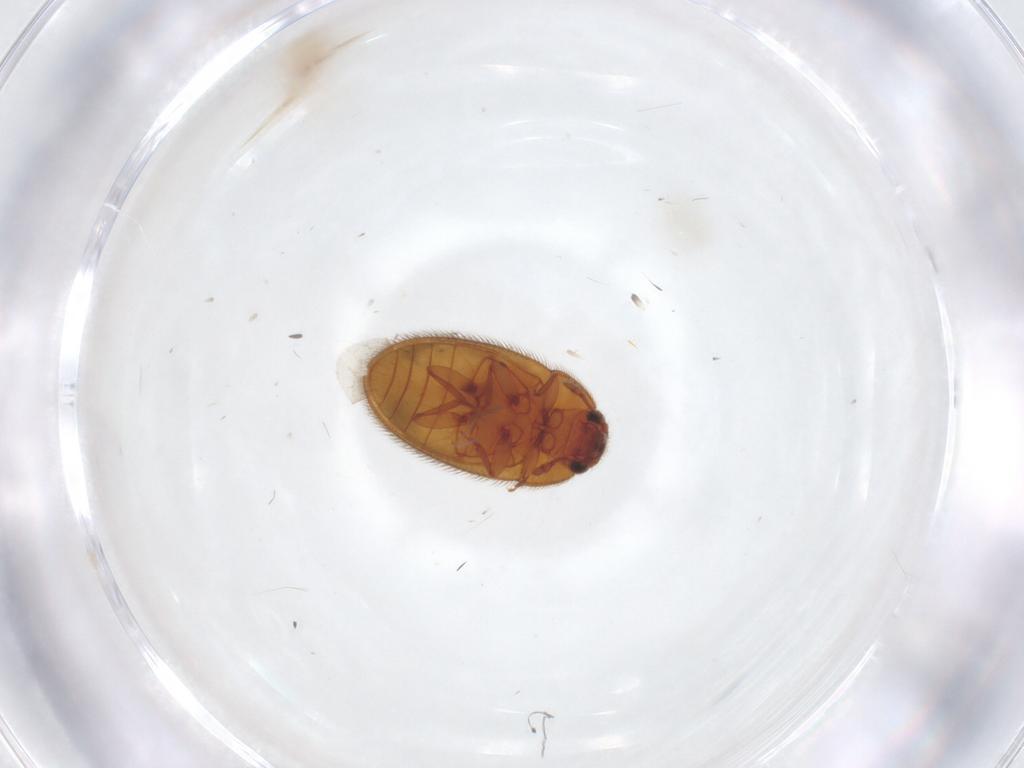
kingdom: Animalia
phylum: Arthropoda
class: Insecta
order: Coleoptera
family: Biphyllidae
